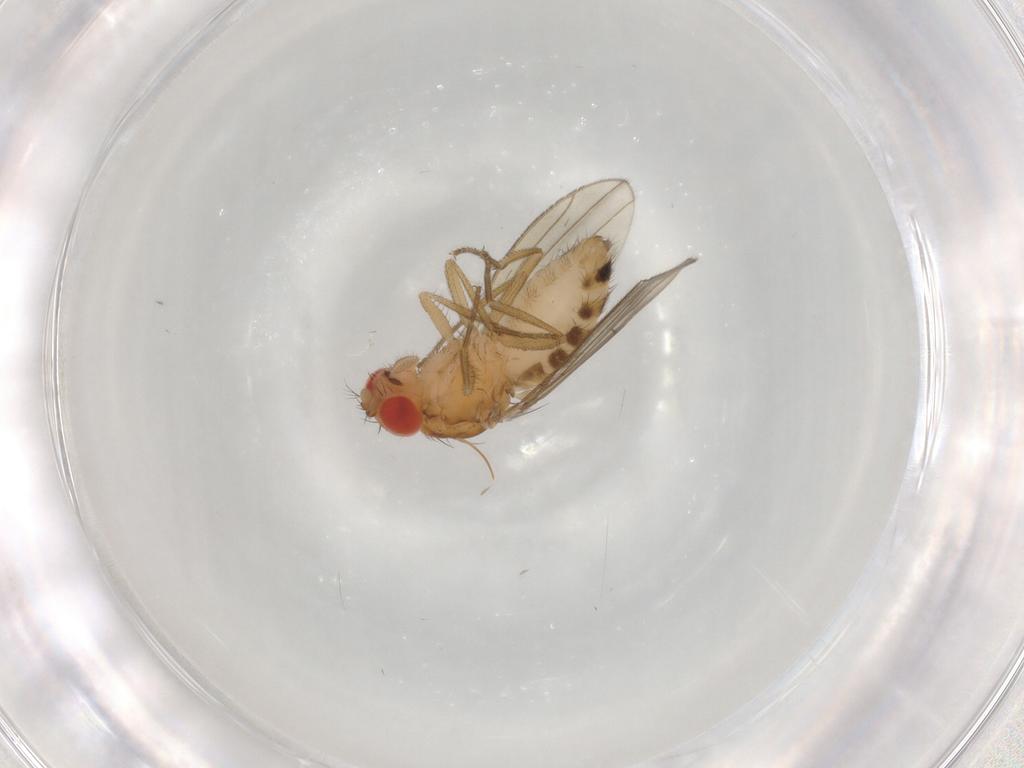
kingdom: Animalia
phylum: Arthropoda
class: Insecta
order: Diptera
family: Drosophilidae
